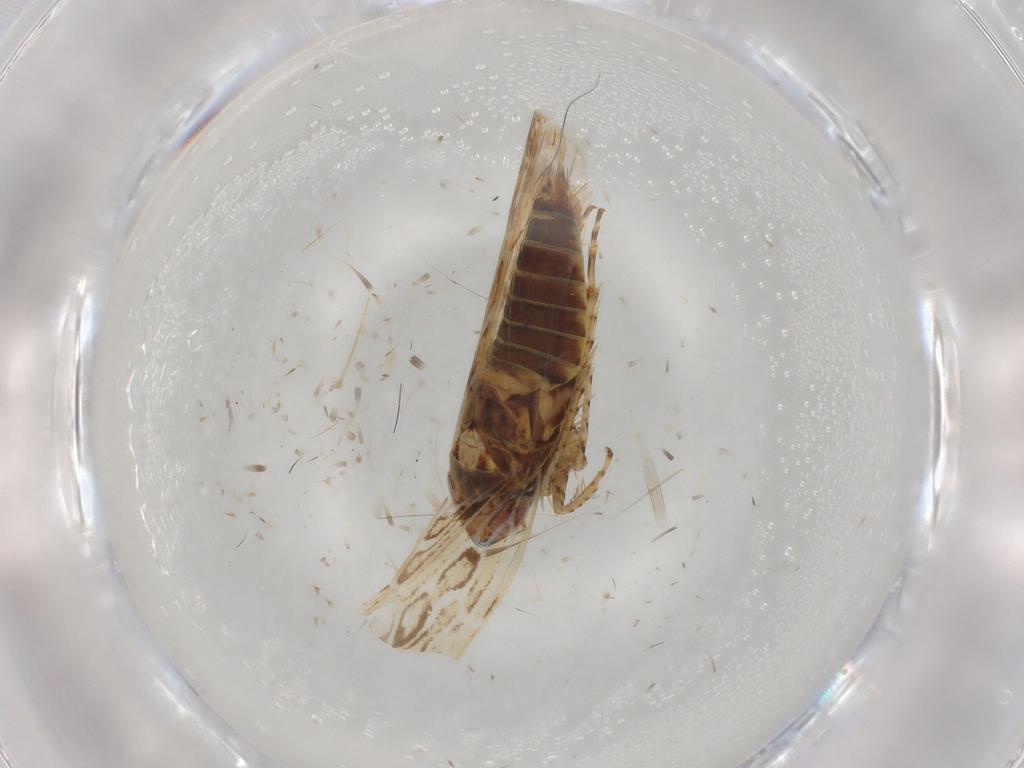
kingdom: Animalia
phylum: Arthropoda
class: Insecta
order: Hemiptera
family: Cicadellidae
